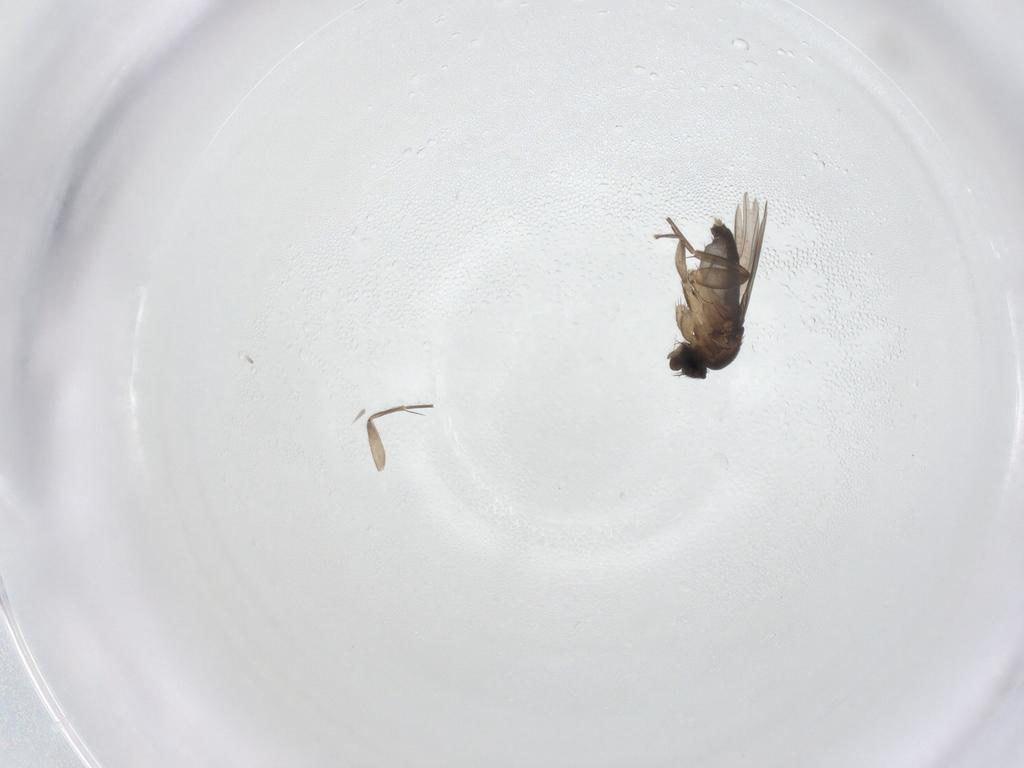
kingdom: Animalia
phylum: Arthropoda
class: Insecta
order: Diptera
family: Phoridae
